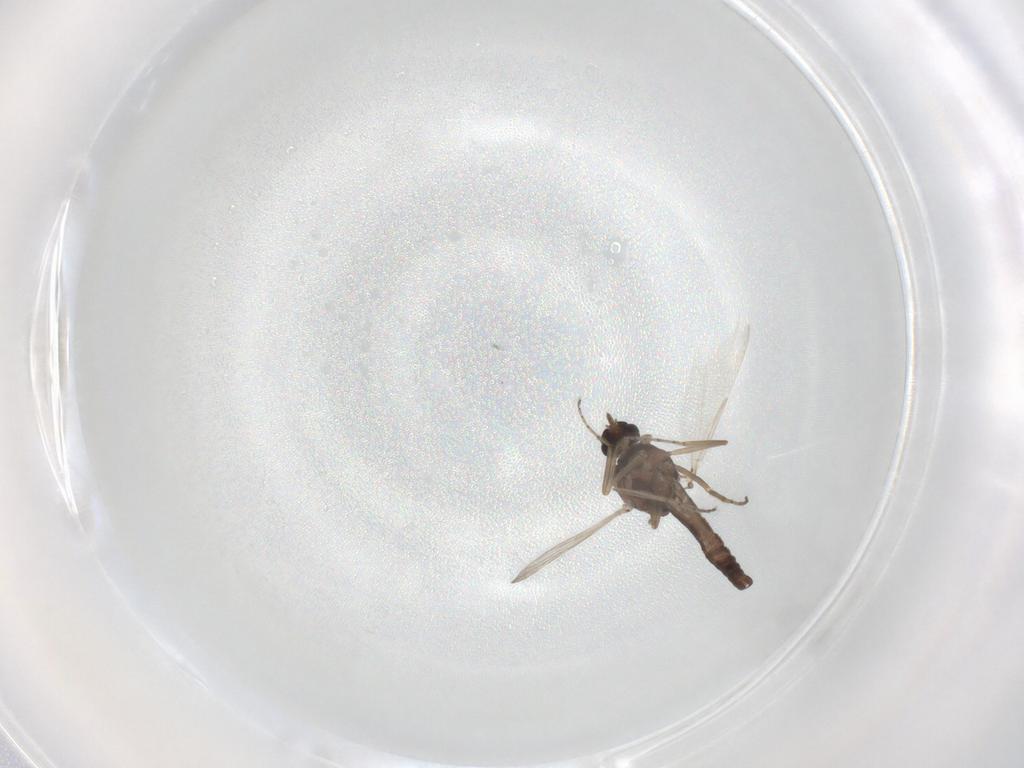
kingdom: Animalia
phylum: Arthropoda
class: Insecta
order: Diptera
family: Ceratopogonidae
